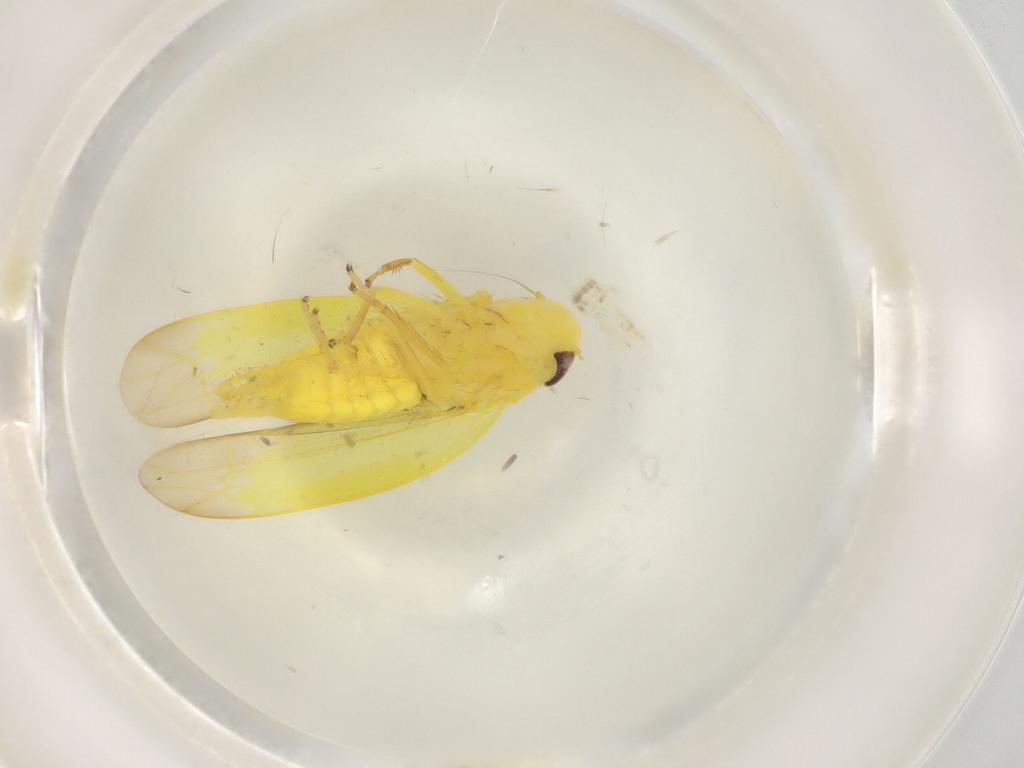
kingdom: Animalia
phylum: Arthropoda
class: Insecta
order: Hemiptera
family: Cicadellidae
